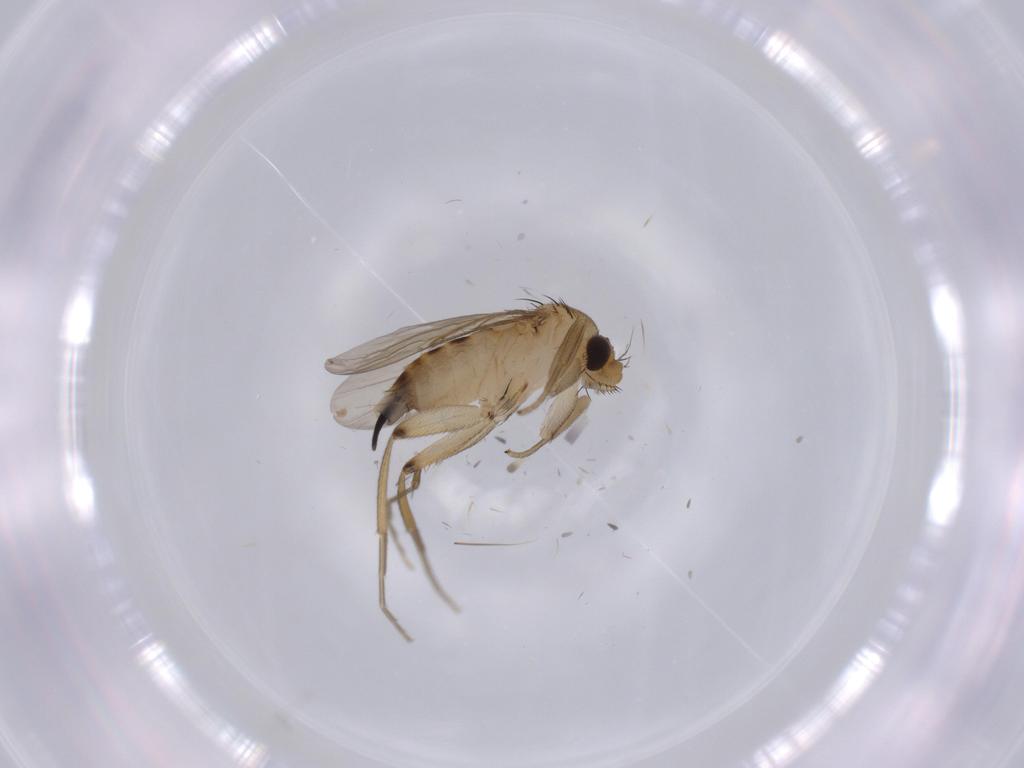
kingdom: Animalia
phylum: Arthropoda
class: Insecta
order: Diptera
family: Phoridae
